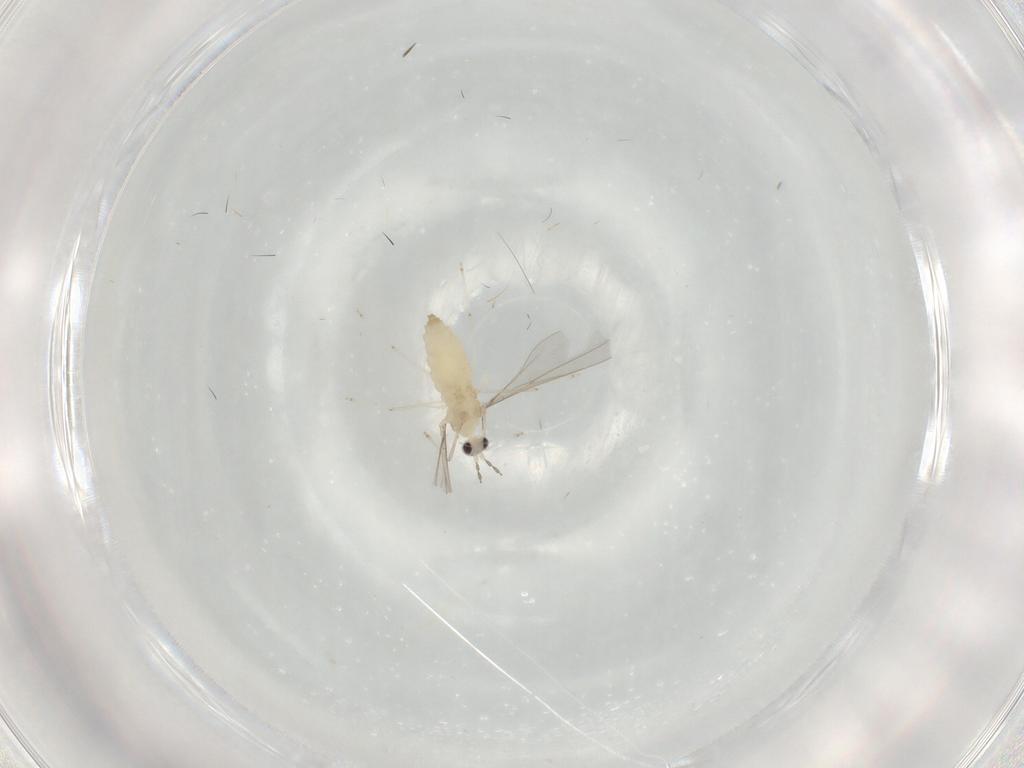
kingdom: Animalia
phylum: Arthropoda
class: Insecta
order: Diptera
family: Cecidomyiidae
